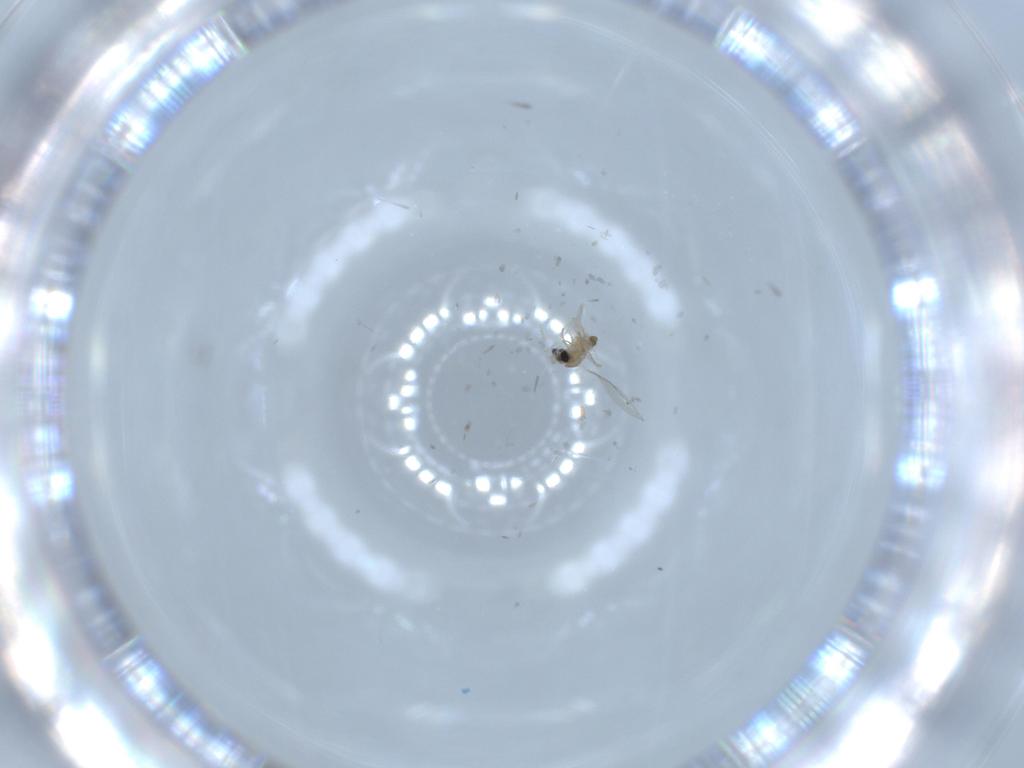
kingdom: Animalia
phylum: Arthropoda
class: Insecta
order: Diptera
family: Cecidomyiidae
